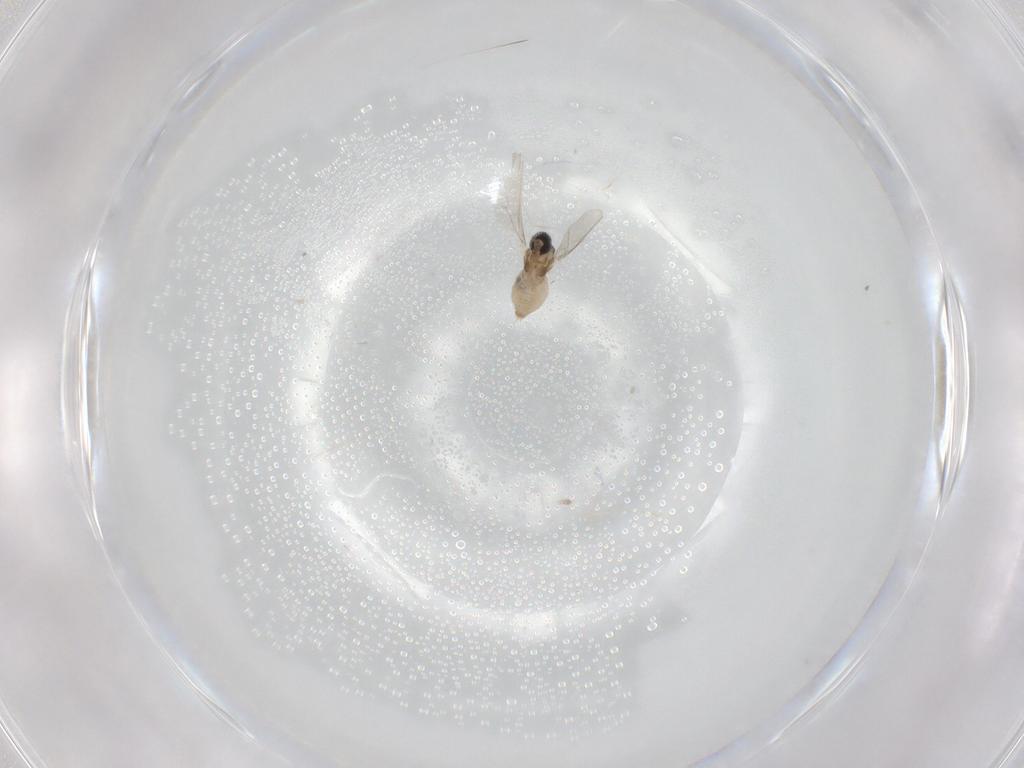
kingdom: Animalia
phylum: Arthropoda
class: Insecta
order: Diptera
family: Cecidomyiidae
